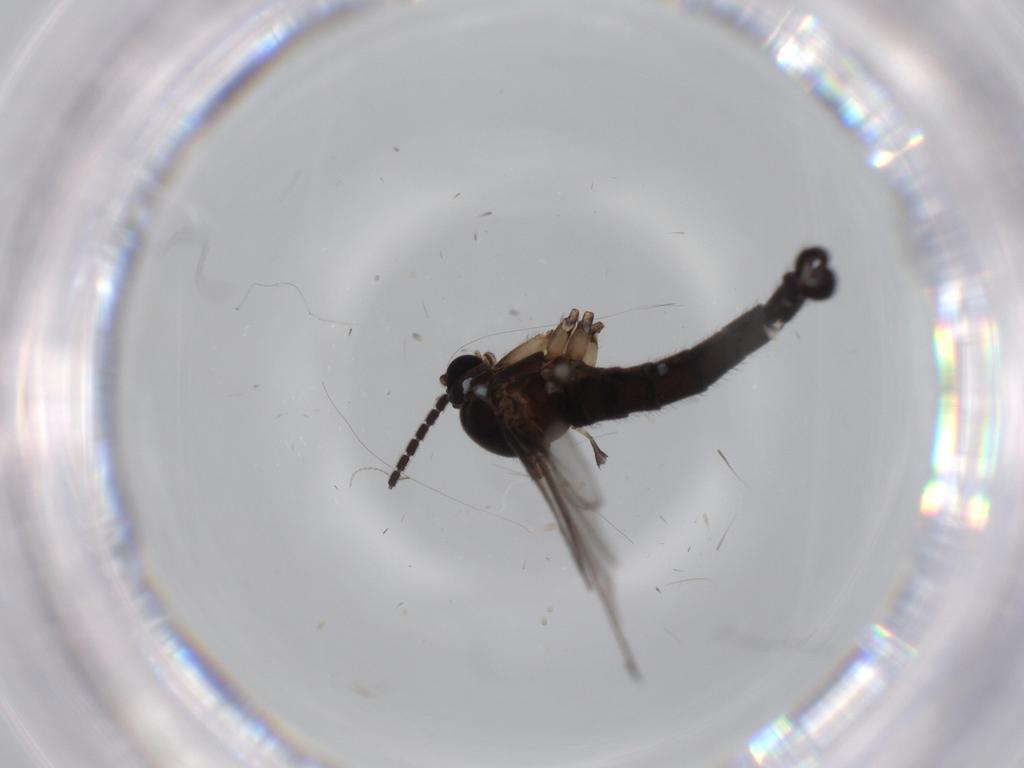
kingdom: Animalia
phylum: Arthropoda
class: Insecta
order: Diptera
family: Sciaridae
